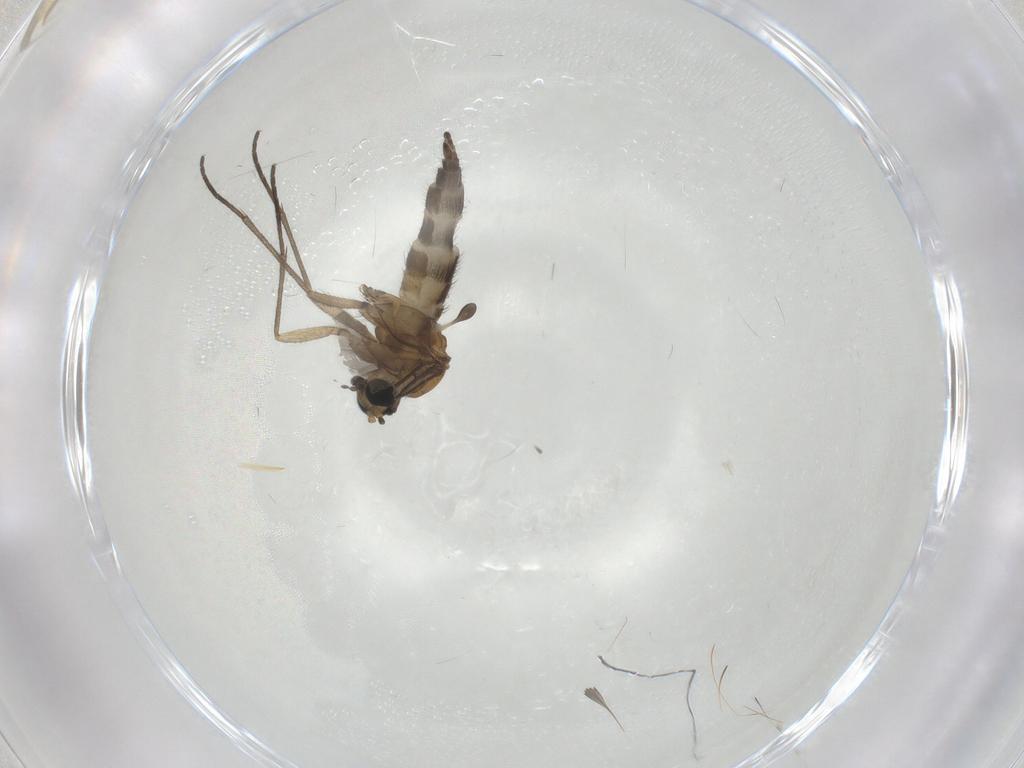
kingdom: Animalia
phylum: Arthropoda
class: Insecta
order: Diptera
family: Sciaridae
